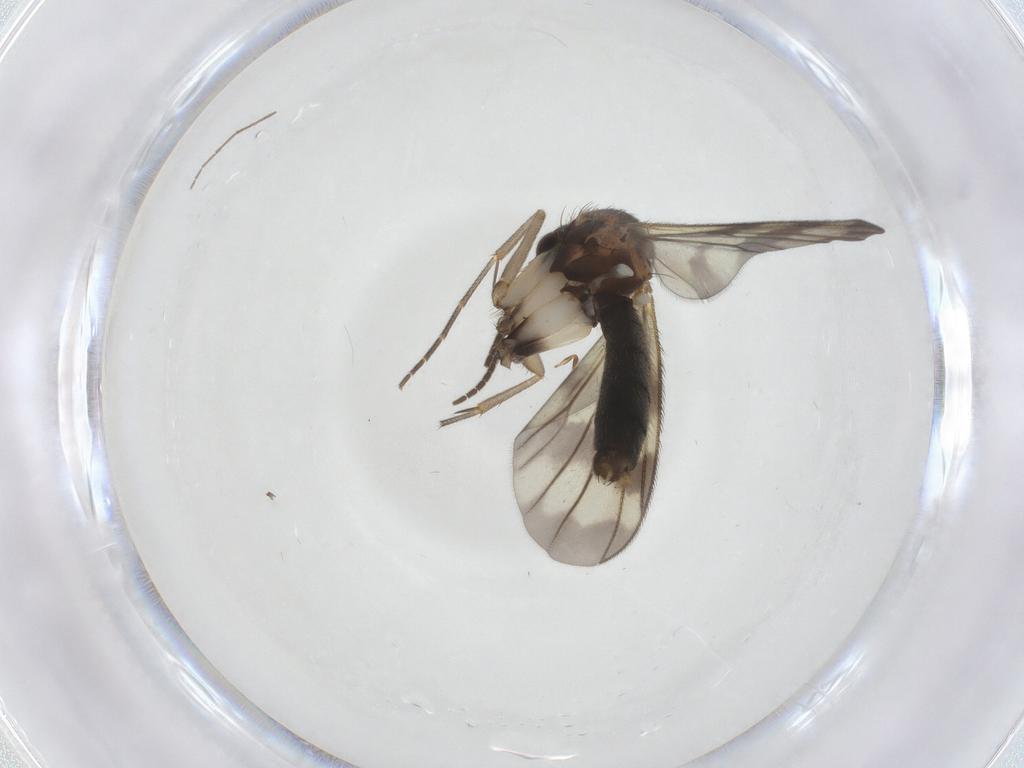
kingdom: Animalia
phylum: Arthropoda
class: Insecta
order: Diptera
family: Mycetophilidae
